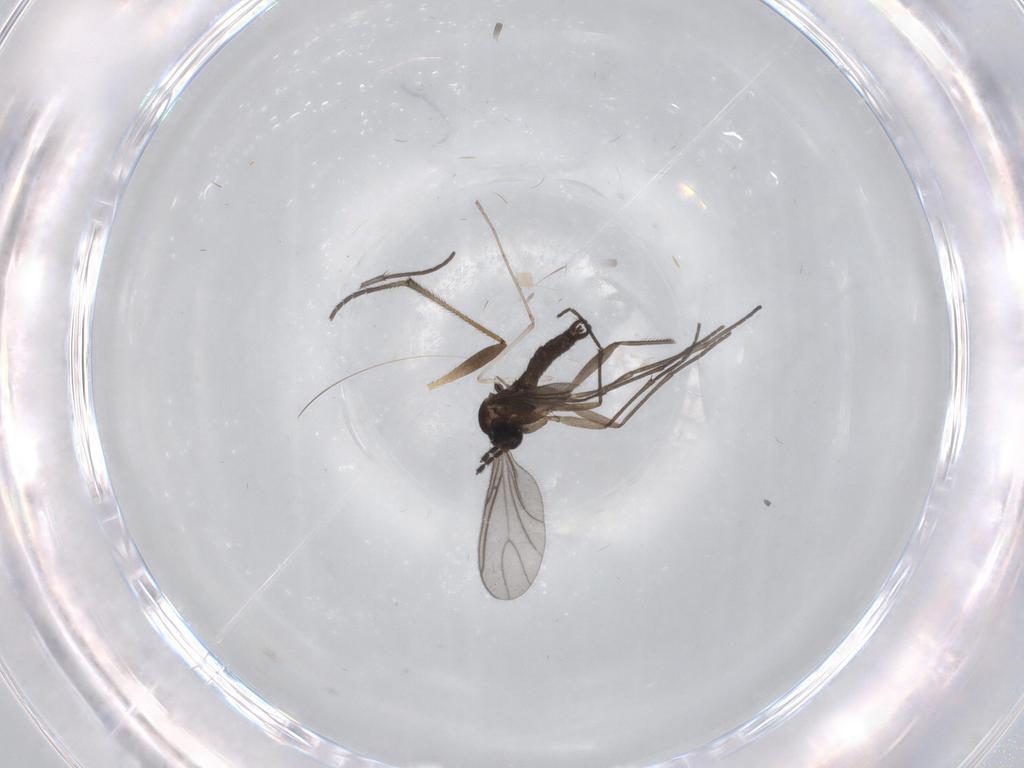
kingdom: Animalia
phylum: Arthropoda
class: Insecta
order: Diptera
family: Sciaridae
